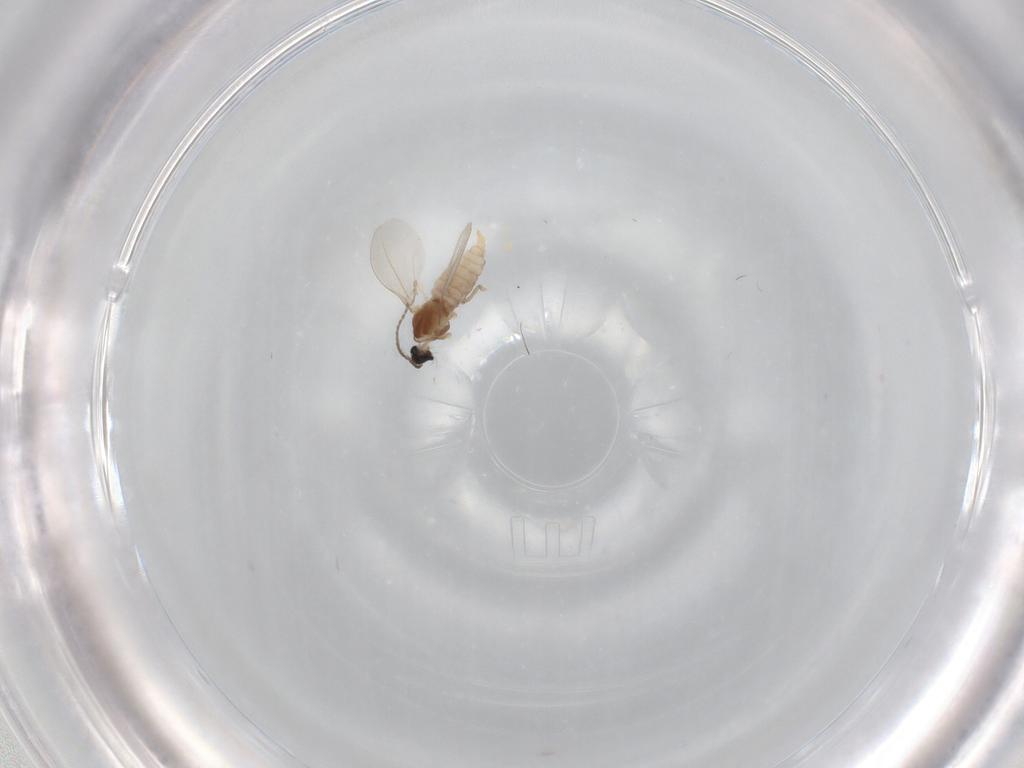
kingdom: Animalia
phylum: Arthropoda
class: Insecta
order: Diptera
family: Cecidomyiidae
